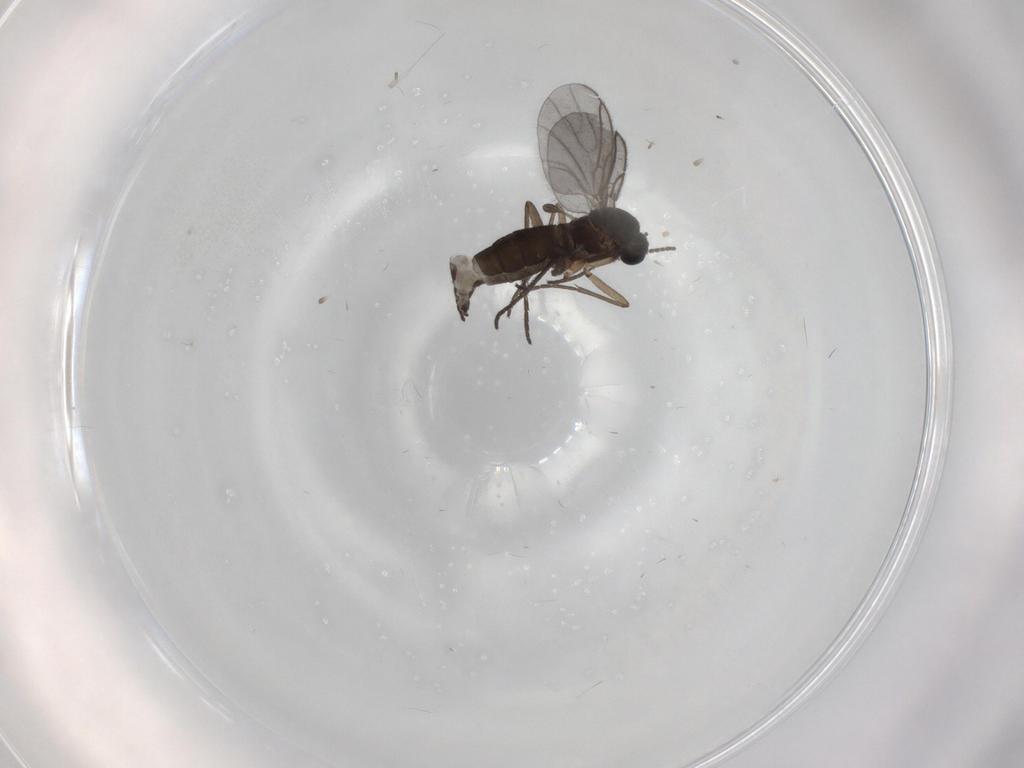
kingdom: Animalia
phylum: Arthropoda
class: Insecta
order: Diptera
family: Sciaridae
